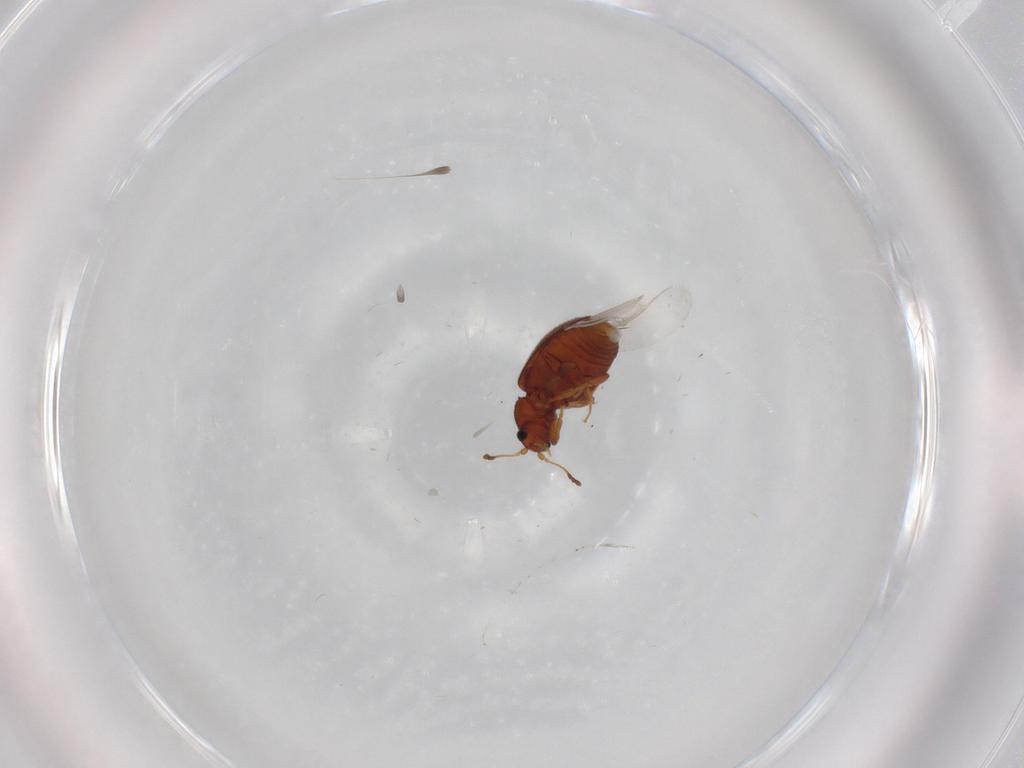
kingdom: Animalia
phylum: Arthropoda
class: Insecta
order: Coleoptera
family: Latridiidae
